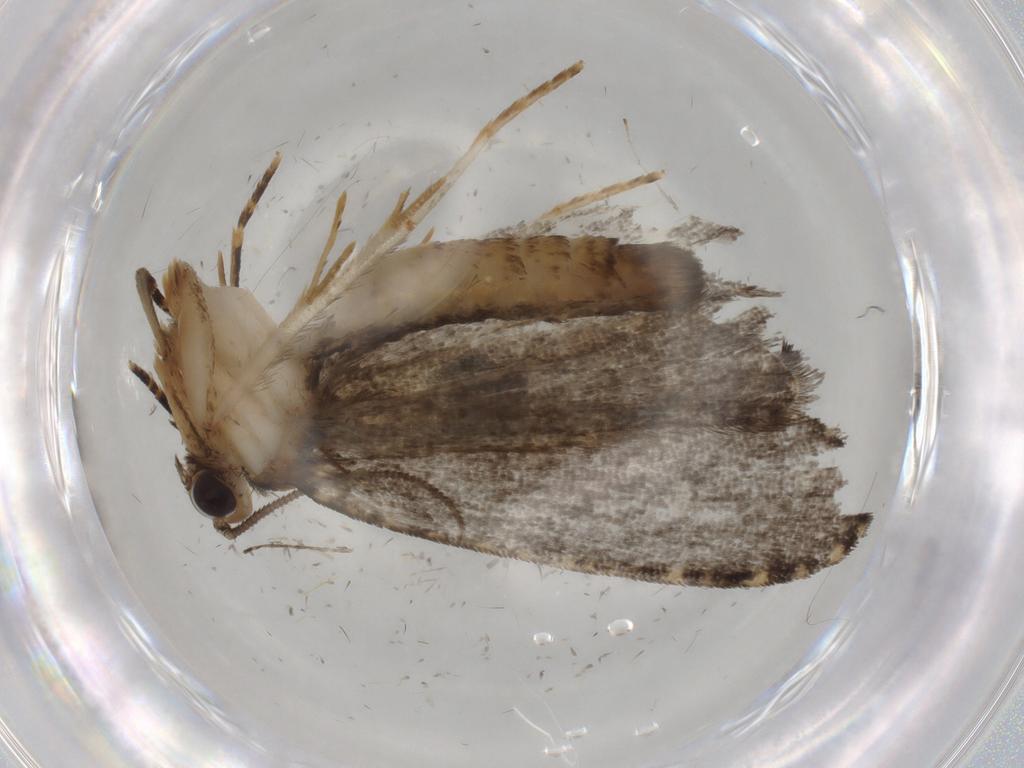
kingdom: Animalia
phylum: Arthropoda
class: Insecta
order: Lepidoptera
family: Tineidae
